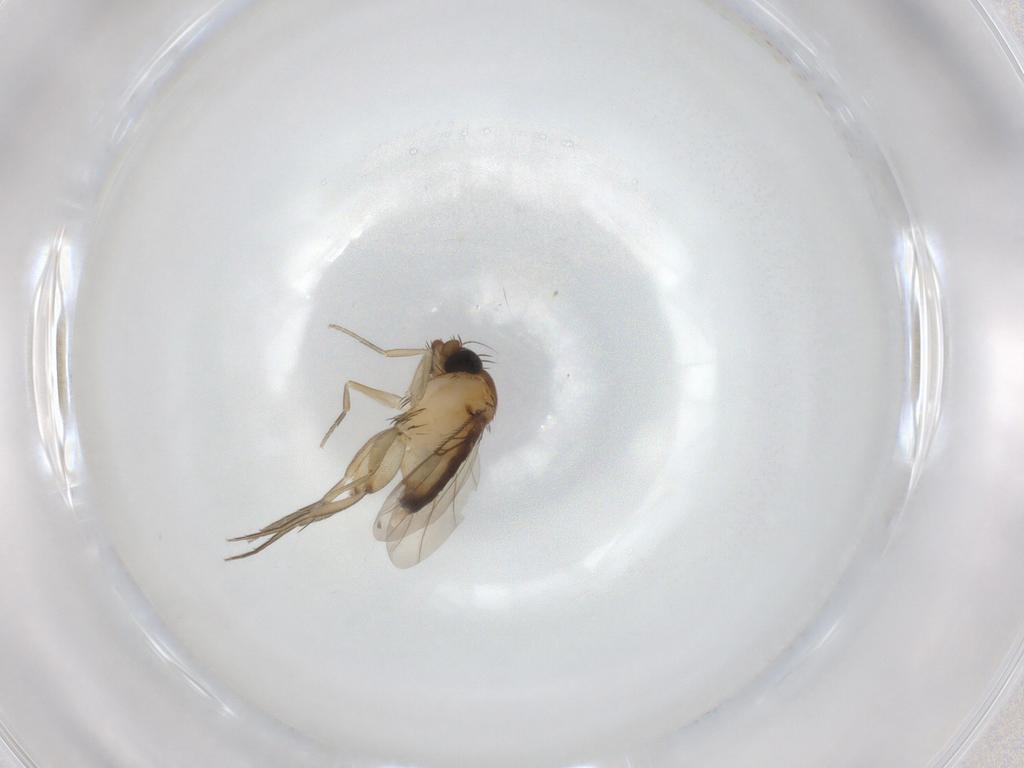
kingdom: Animalia
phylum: Arthropoda
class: Insecta
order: Diptera
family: Phoridae
